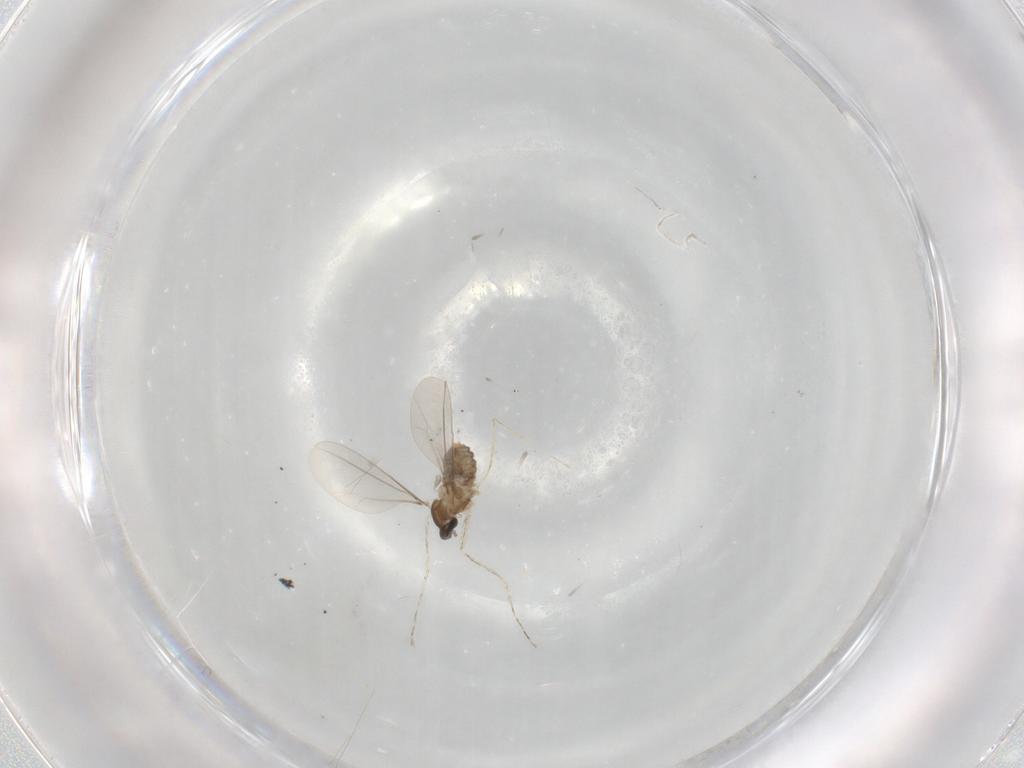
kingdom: Animalia
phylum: Arthropoda
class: Insecta
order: Diptera
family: Cecidomyiidae
